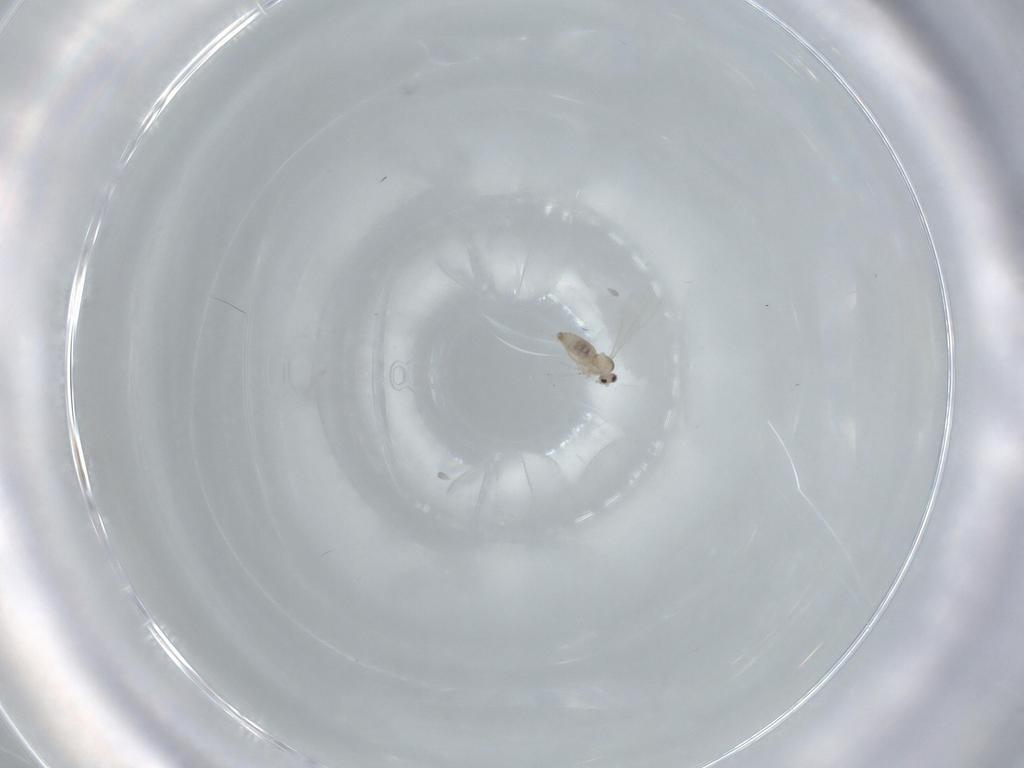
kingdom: Animalia
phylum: Arthropoda
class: Insecta
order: Diptera
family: Cecidomyiidae
